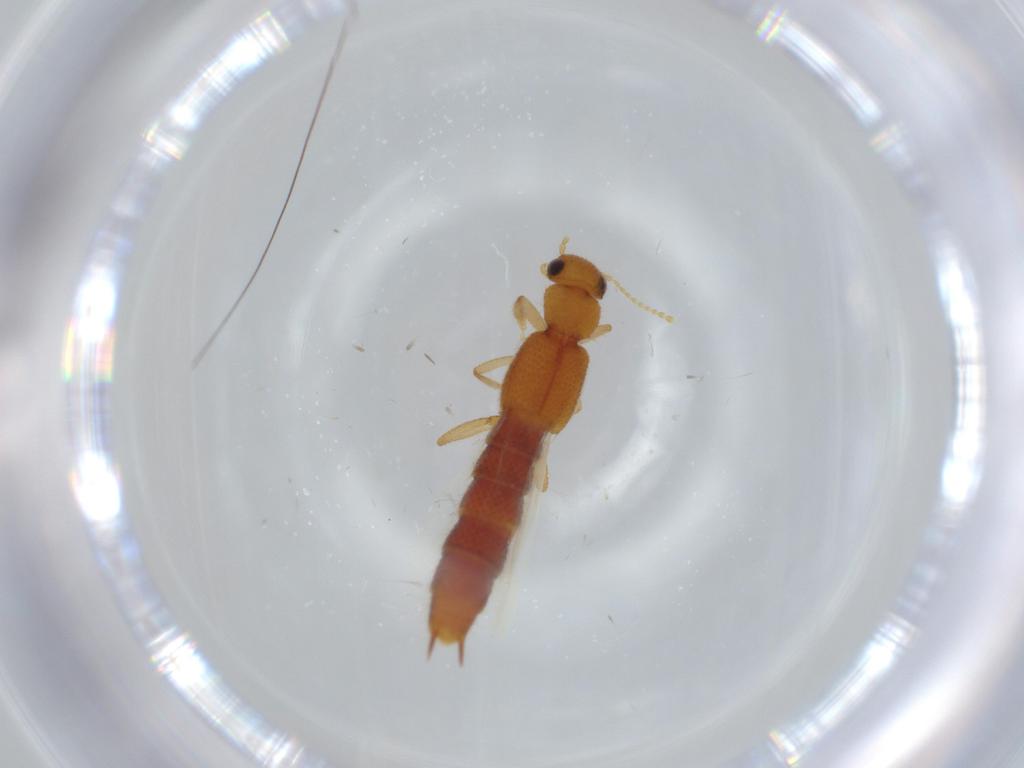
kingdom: Animalia
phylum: Arthropoda
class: Insecta
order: Coleoptera
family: Staphylinidae
